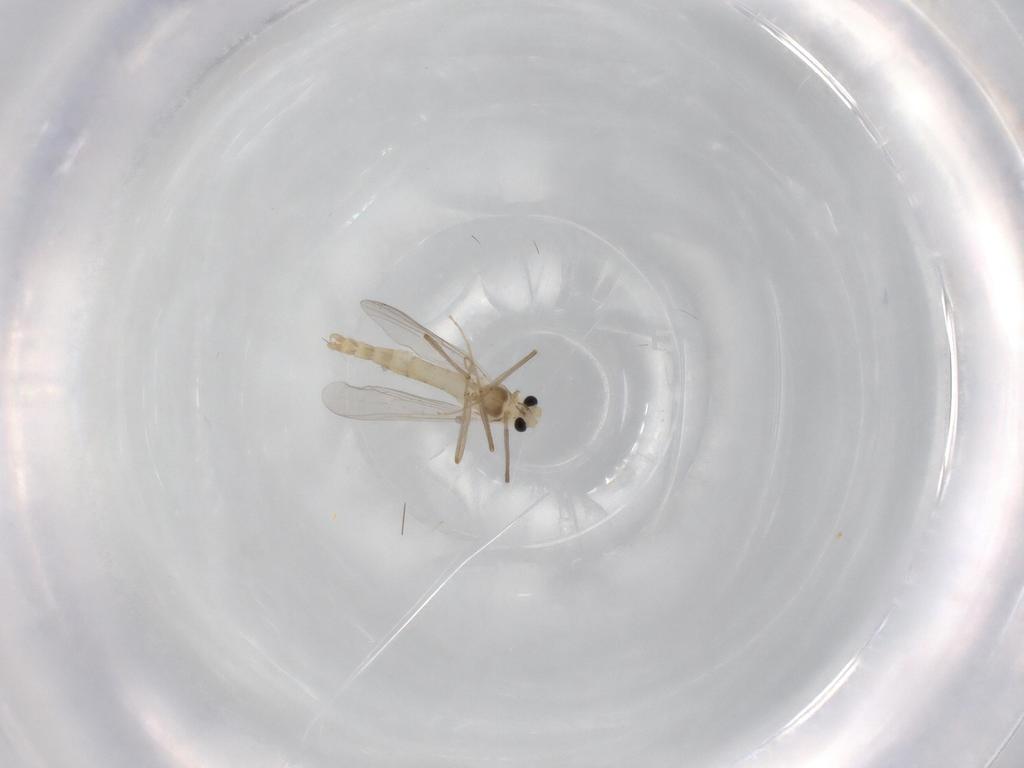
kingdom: Animalia
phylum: Arthropoda
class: Insecta
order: Diptera
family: Chironomidae
